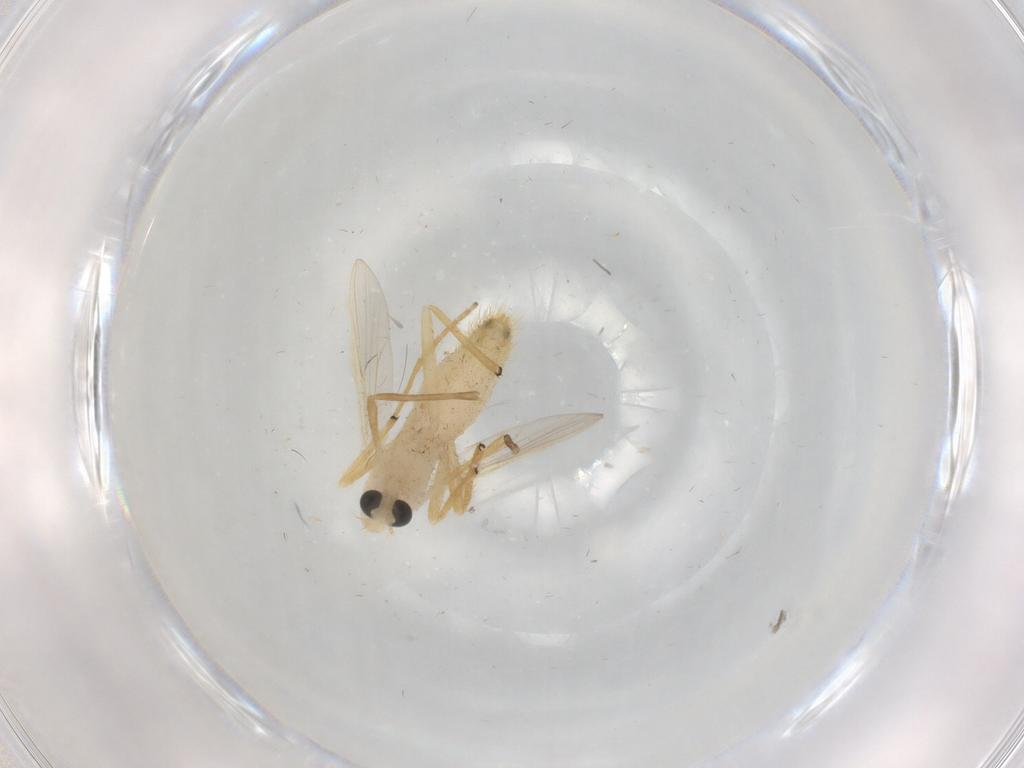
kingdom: Animalia
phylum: Arthropoda
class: Insecta
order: Diptera
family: Chironomidae
